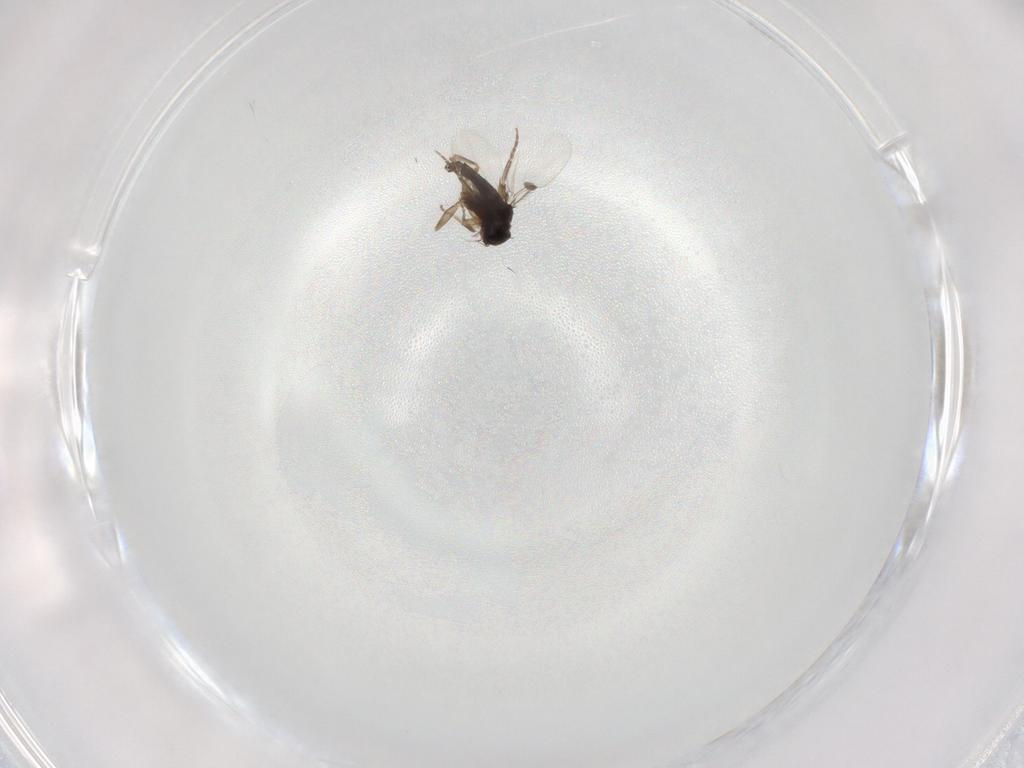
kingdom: Animalia
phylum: Arthropoda
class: Insecta
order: Diptera
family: Phoridae
